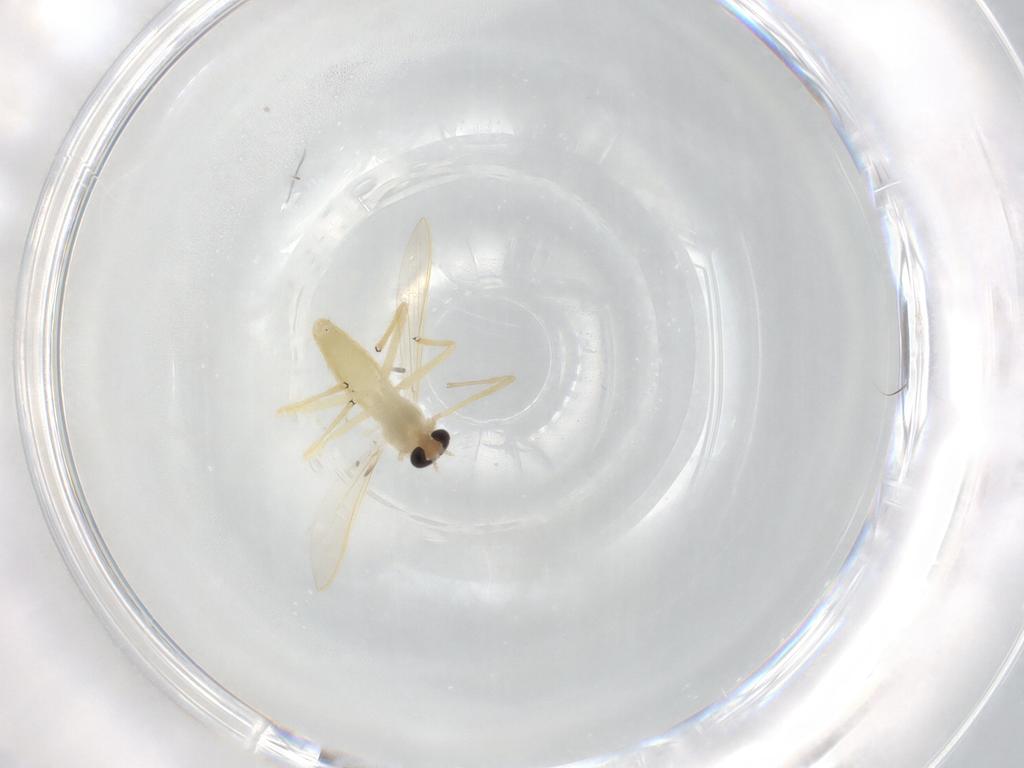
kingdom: Animalia
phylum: Arthropoda
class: Insecta
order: Diptera
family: Chironomidae
